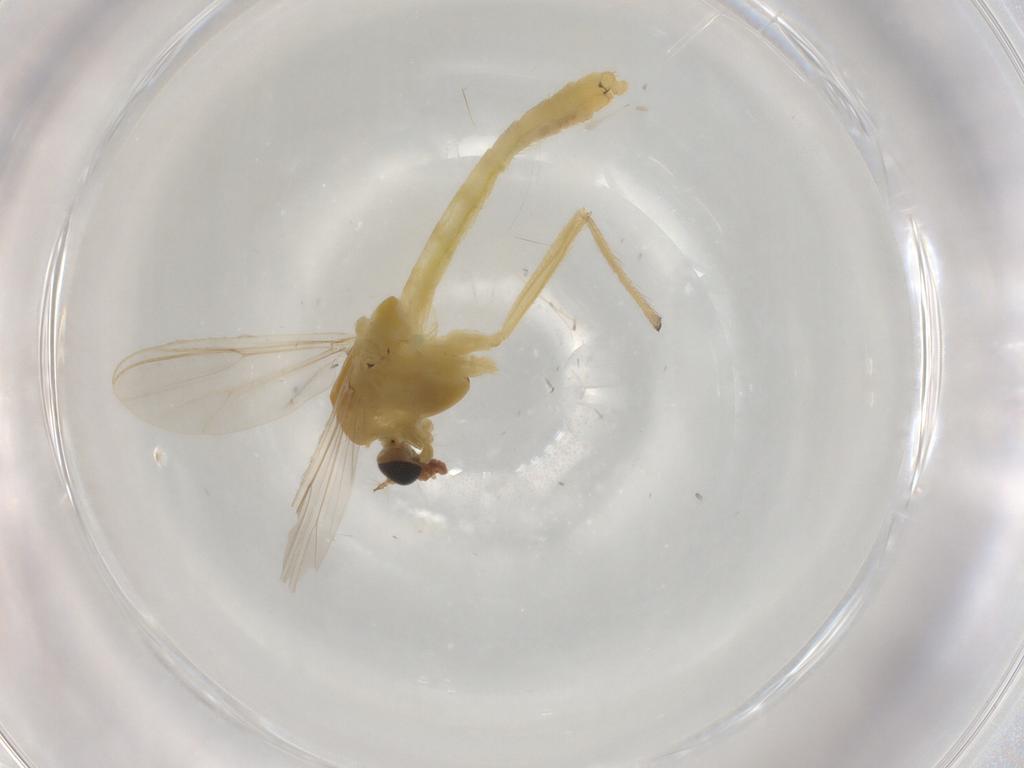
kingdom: Animalia
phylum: Arthropoda
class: Insecta
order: Diptera
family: Chironomidae
